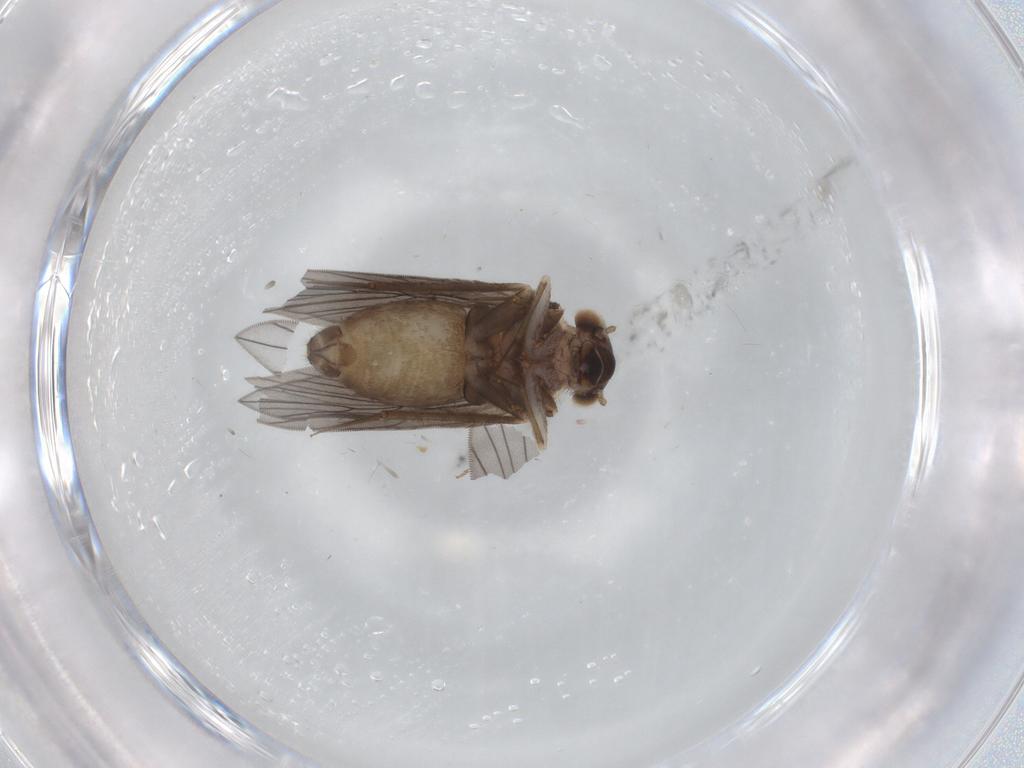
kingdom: Animalia
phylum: Arthropoda
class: Insecta
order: Psocodea
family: Lepidopsocidae
